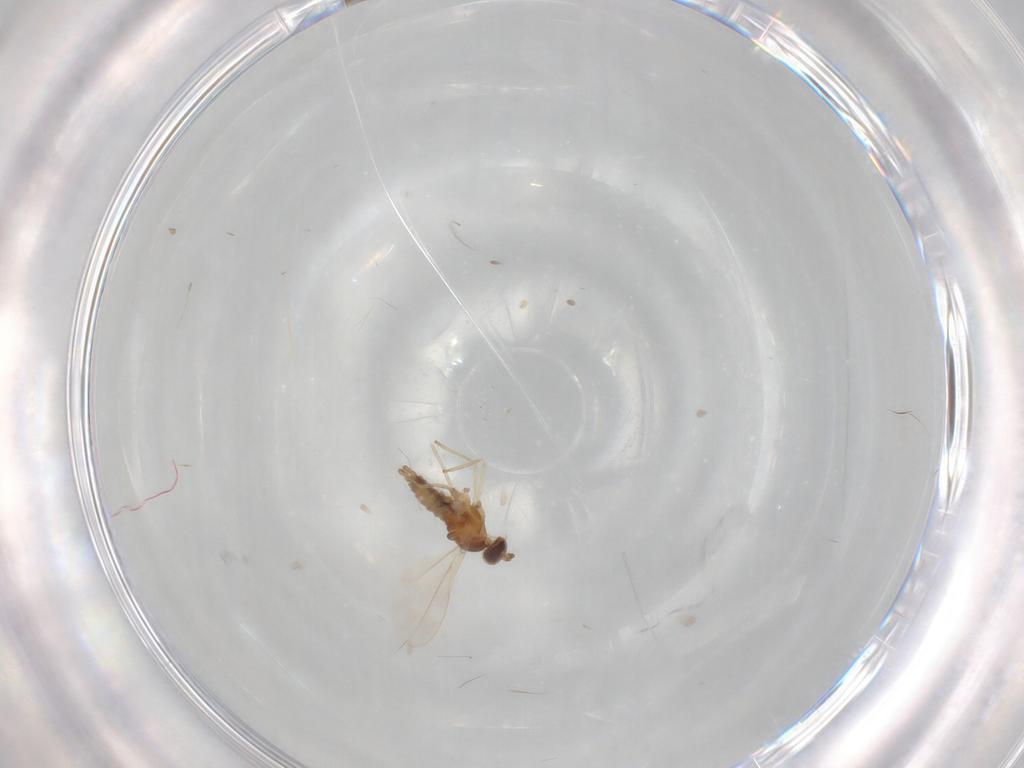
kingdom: Animalia
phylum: Arthropoda
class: Insecta
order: Diptera
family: Cecidomyiidae
